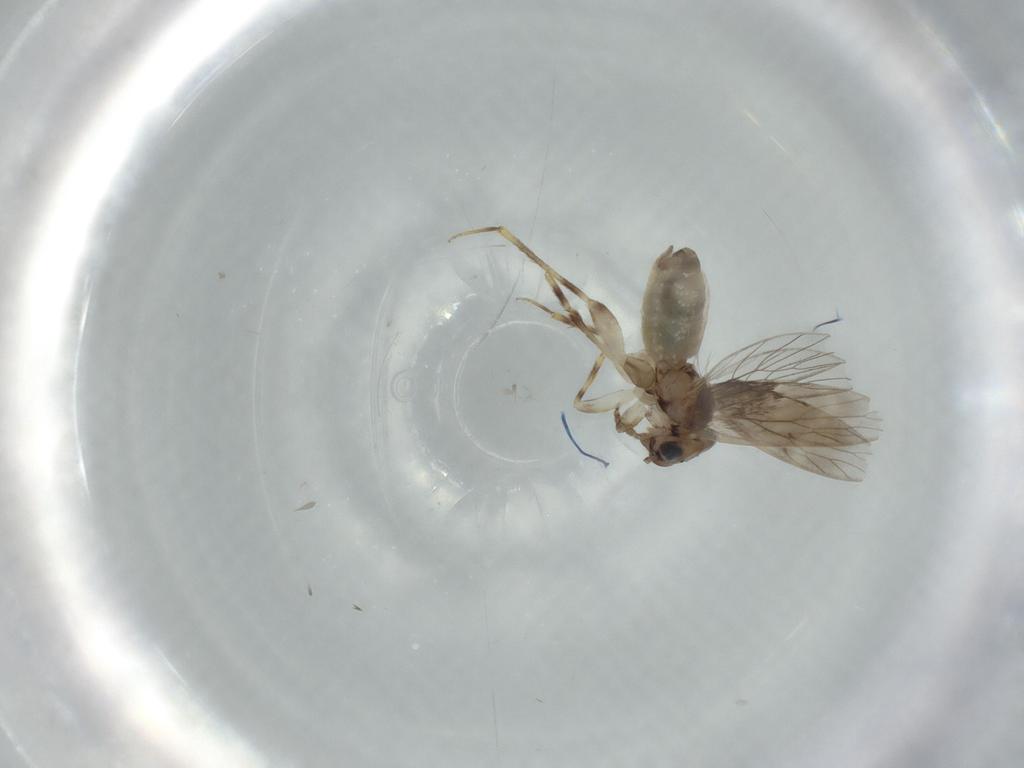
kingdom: Animalia
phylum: Arthropoda
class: Insecta
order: Psocodea
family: Lepidopsocidae
